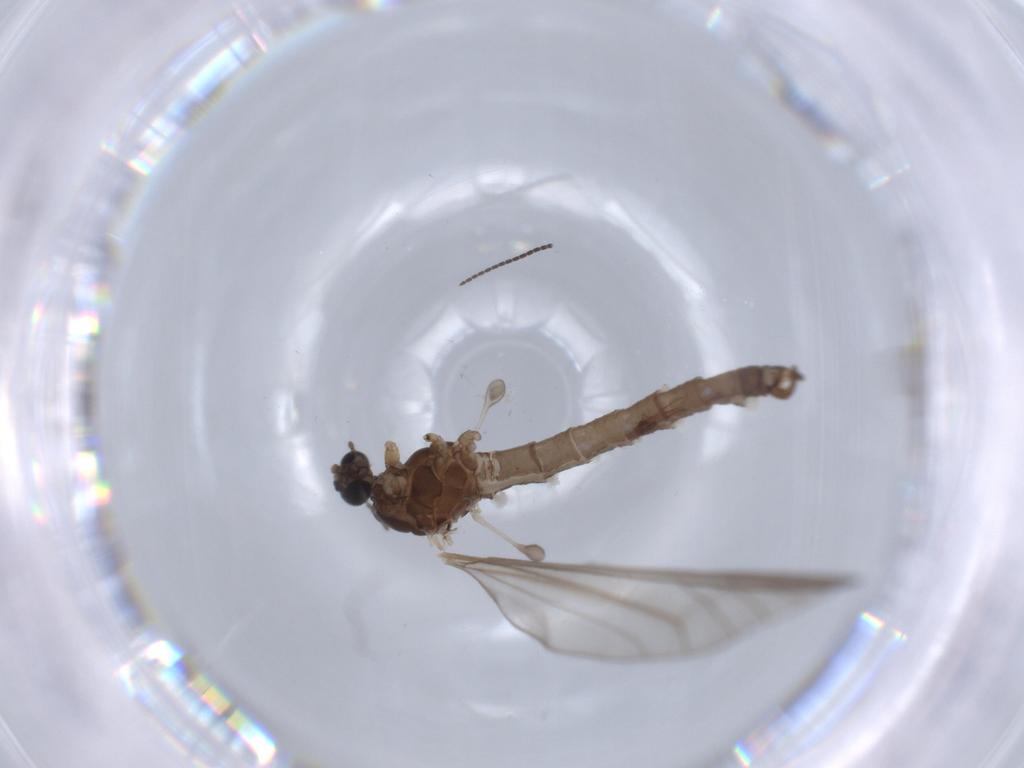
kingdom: Animalia
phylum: Arthropoda
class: Insecta
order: Diptera
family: Trichoceridae
